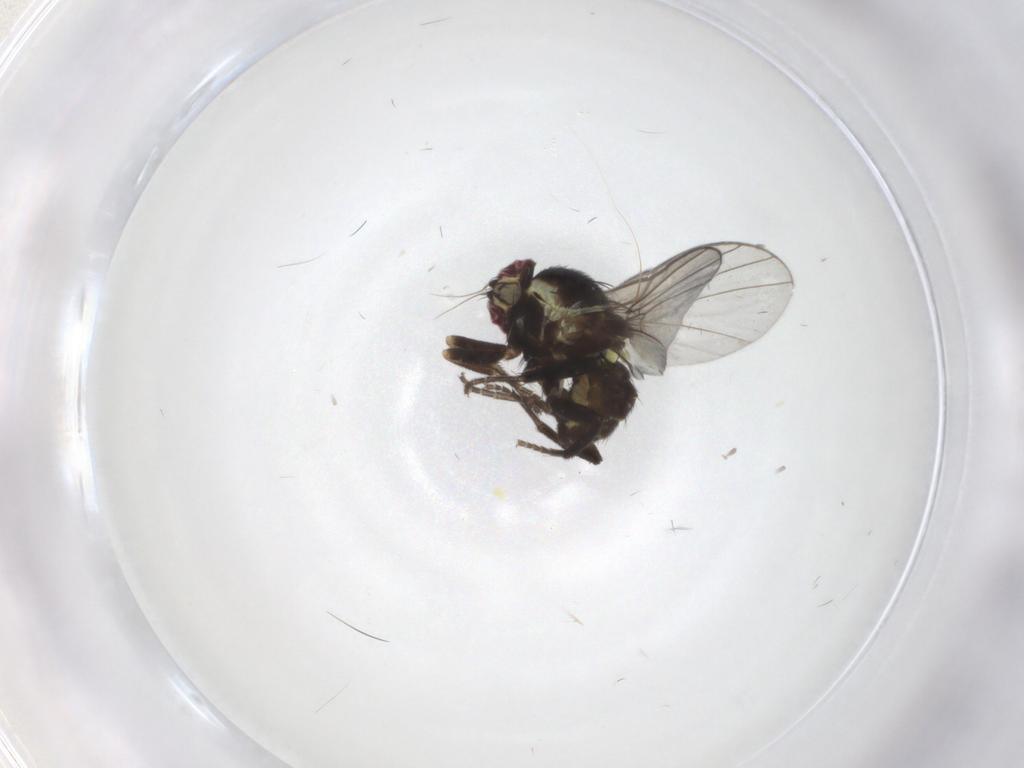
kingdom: Animalia
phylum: Arthropoda
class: Insecta
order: Diptera
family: Agromyzidae
